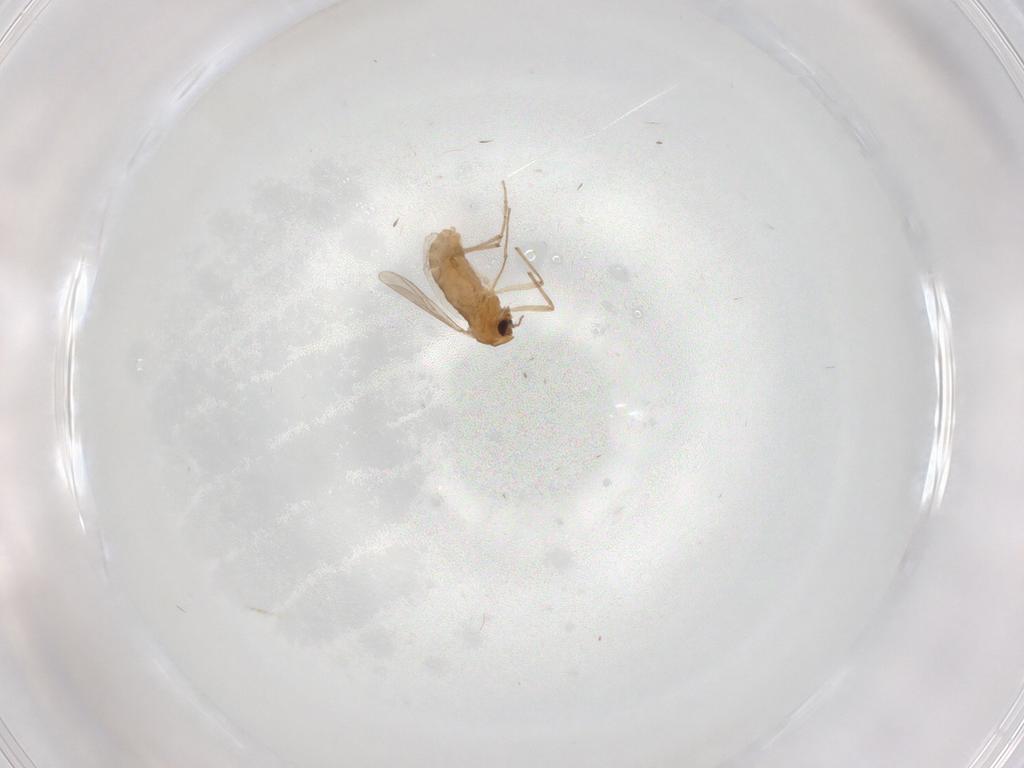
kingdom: Animalia
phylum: Arthropoda
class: Insecta
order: Diptera
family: Chironomidae
